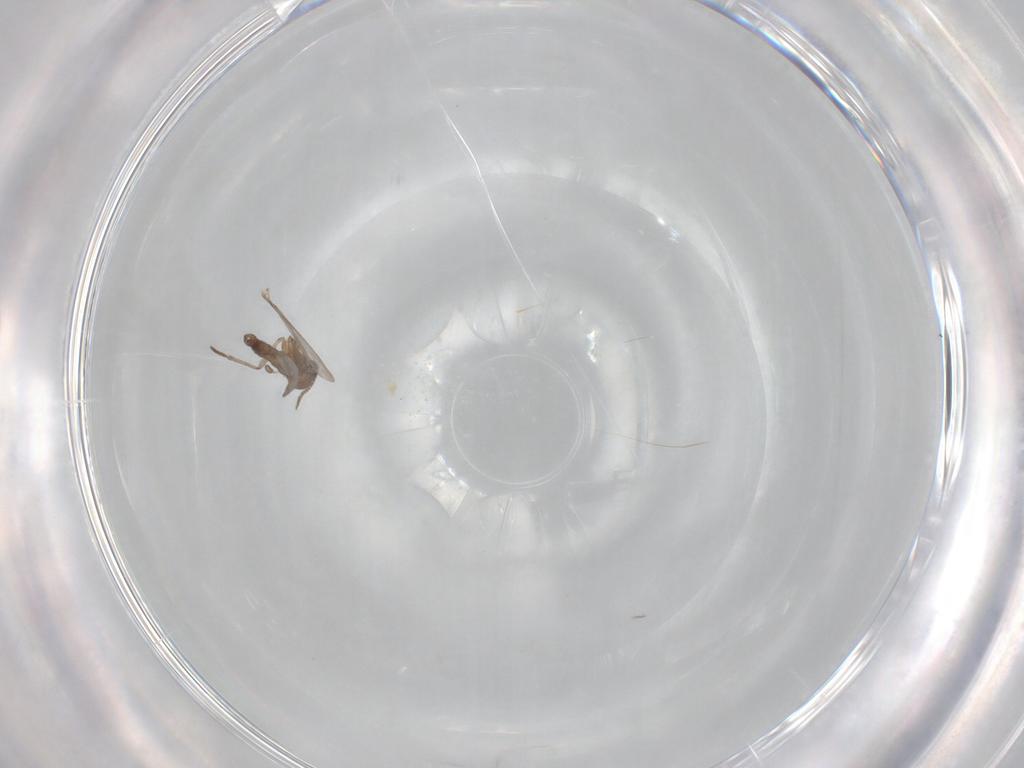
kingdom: Animalia
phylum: Arthropoda
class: Insecta
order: Diptera
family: Sciaridae
